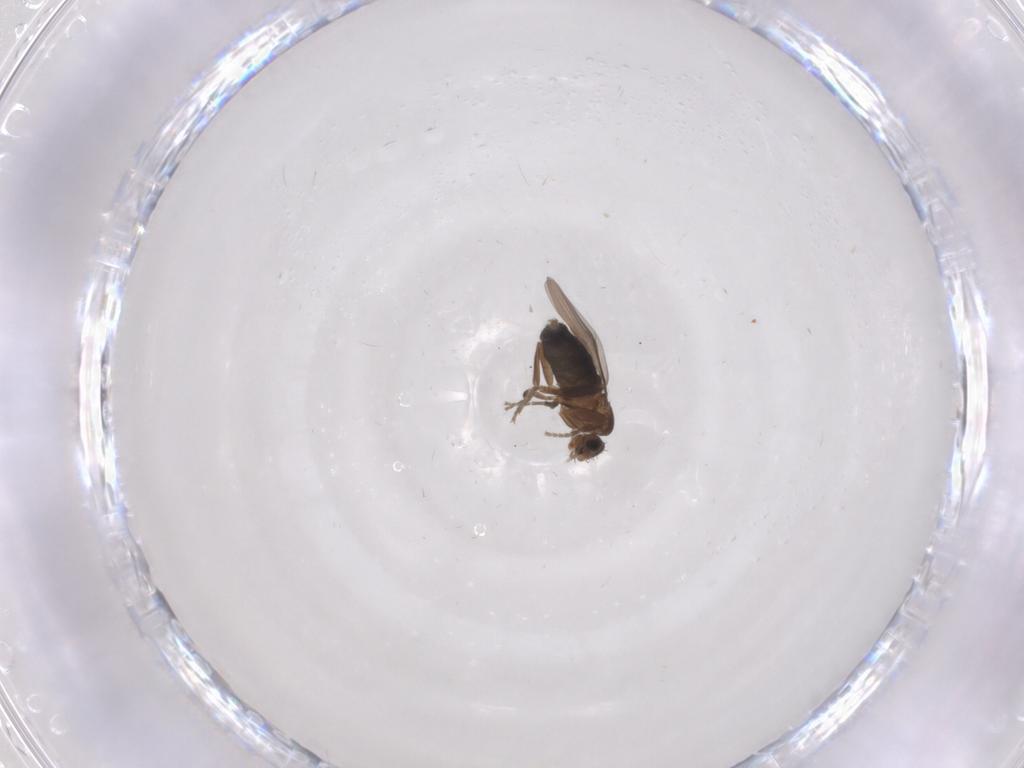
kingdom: Animalia
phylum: Arthropoda
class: Insecta
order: Diptera
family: Phoridae
